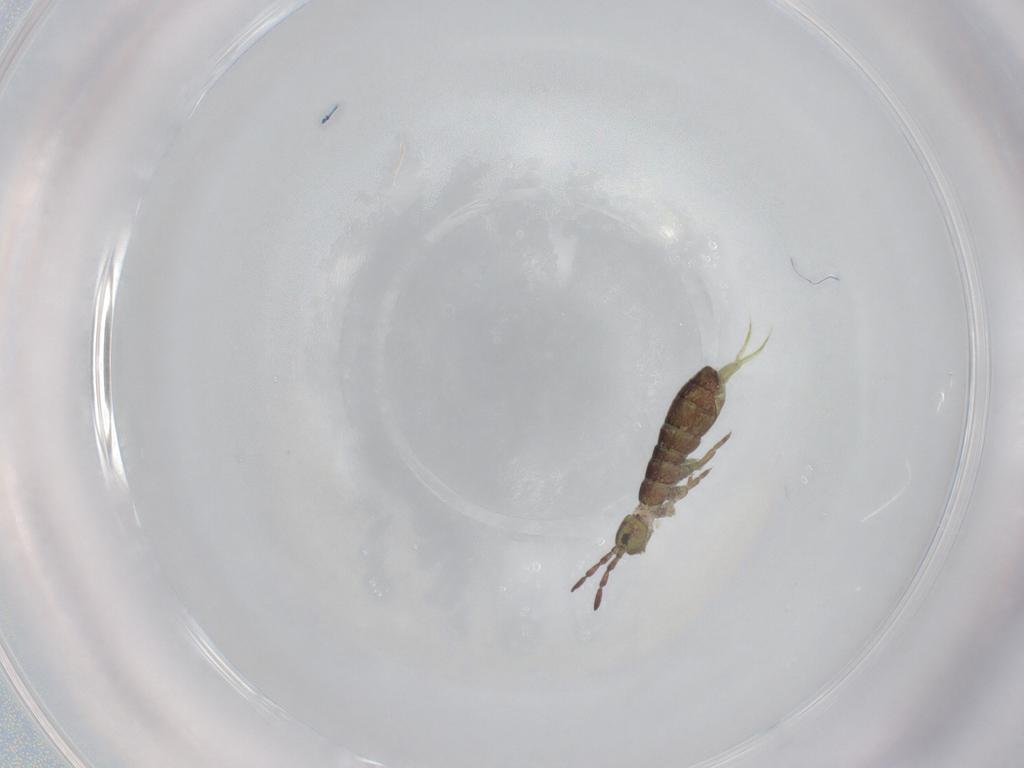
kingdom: Animalia
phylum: Arthropoda
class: Collembola
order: Entomobryomorpha
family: Isotomidae
